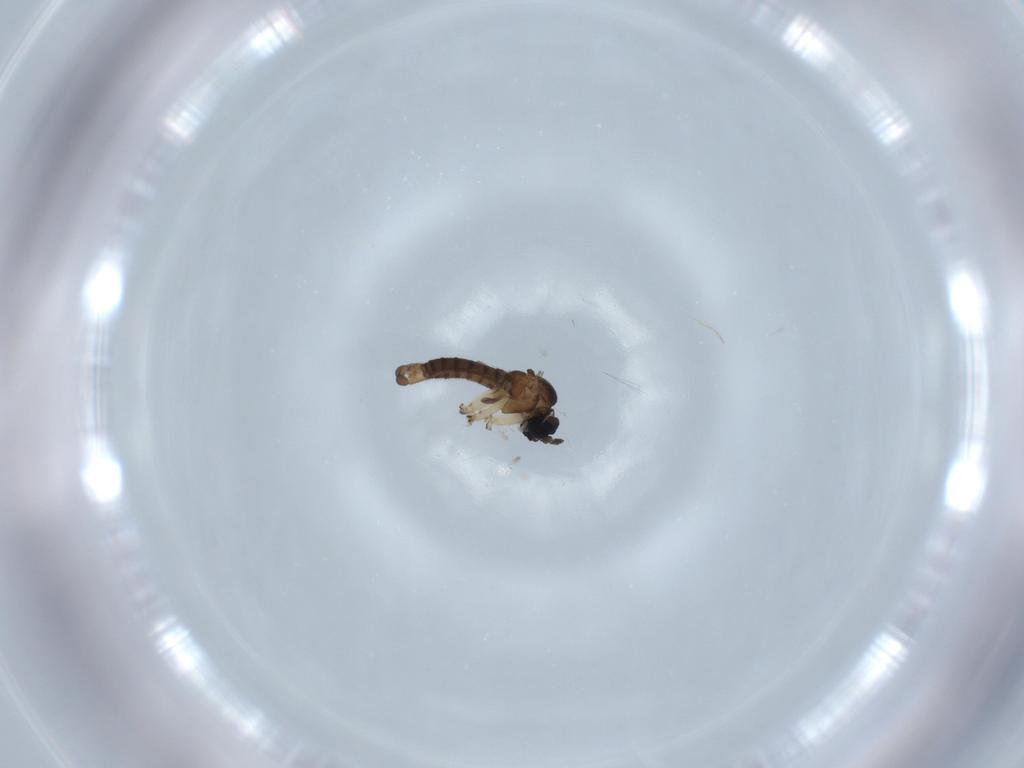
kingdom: Animalia
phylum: Arthropoda
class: Insecta
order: Diptera
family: Sciaridae
